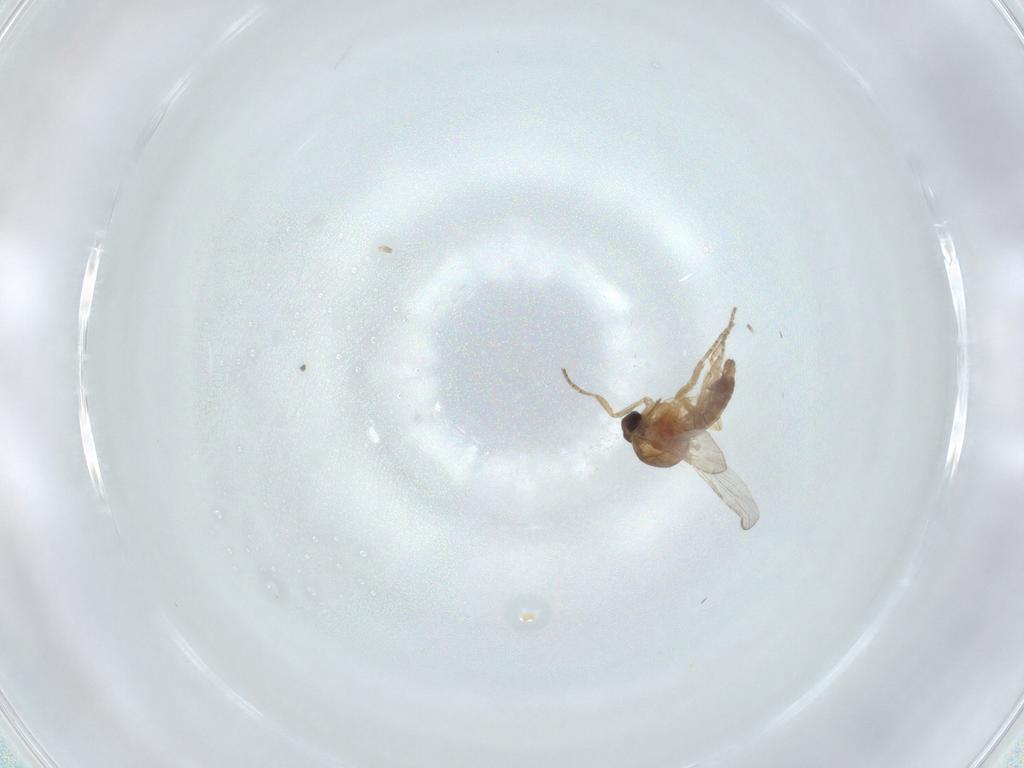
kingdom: Animalia
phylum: Arthropoda
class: Insecta
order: Diptera
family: Ceratopogonidae
